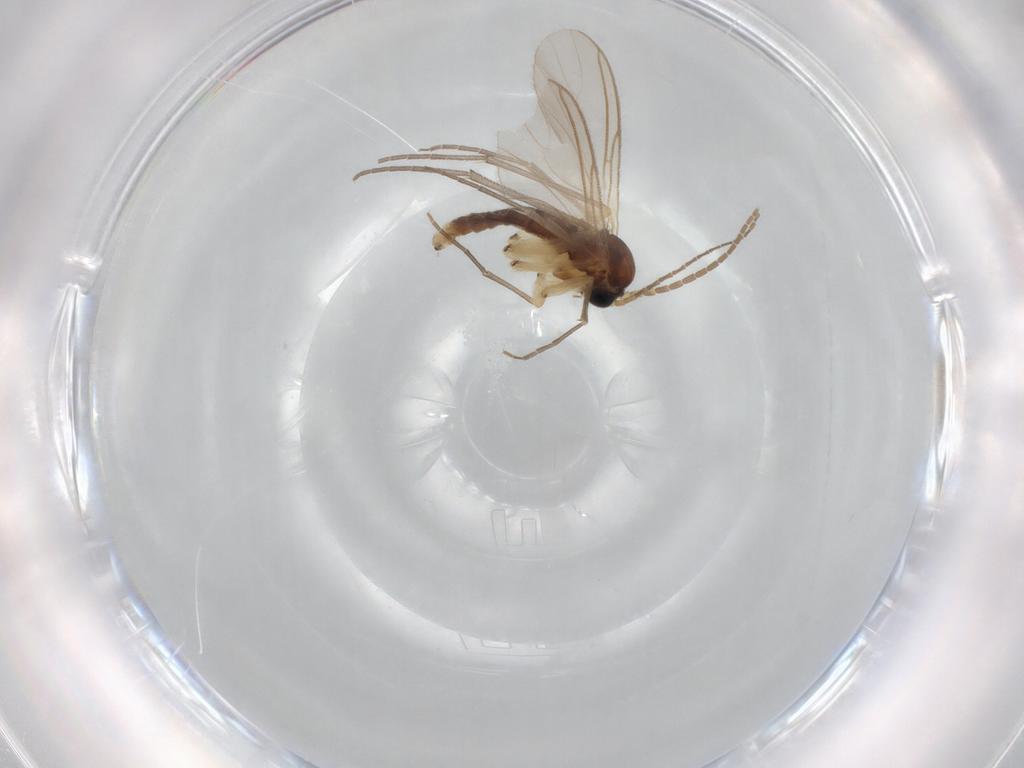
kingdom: Animalia
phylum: Arthropoda
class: Insecta
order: Diptera
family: Sciaridae
